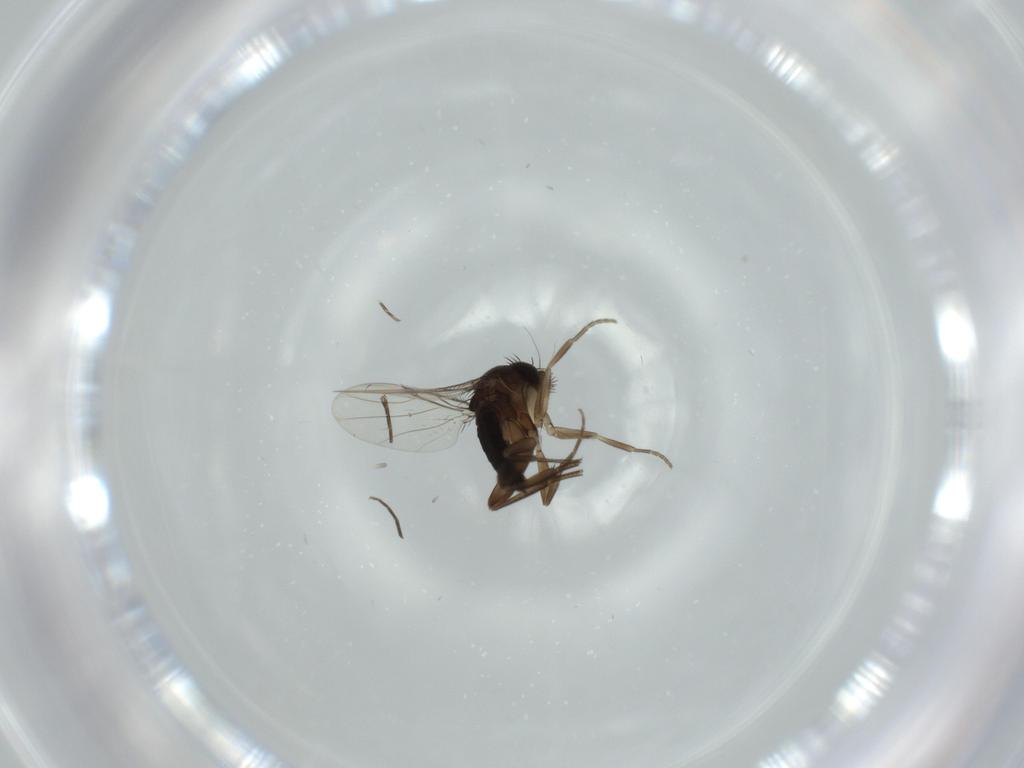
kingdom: Animalia
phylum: Arthropoda
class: Insecta
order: Diptera
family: Phoridae
